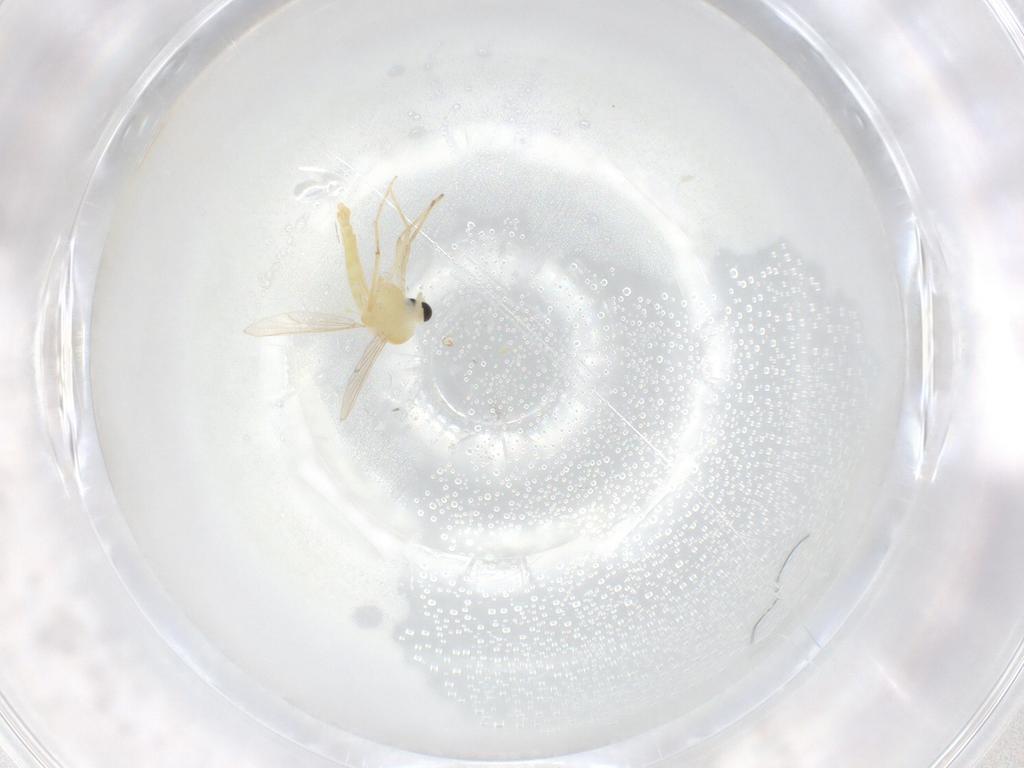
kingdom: Animalia
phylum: Arthropoda
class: Insecta
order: Diptera
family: Chironomidae
